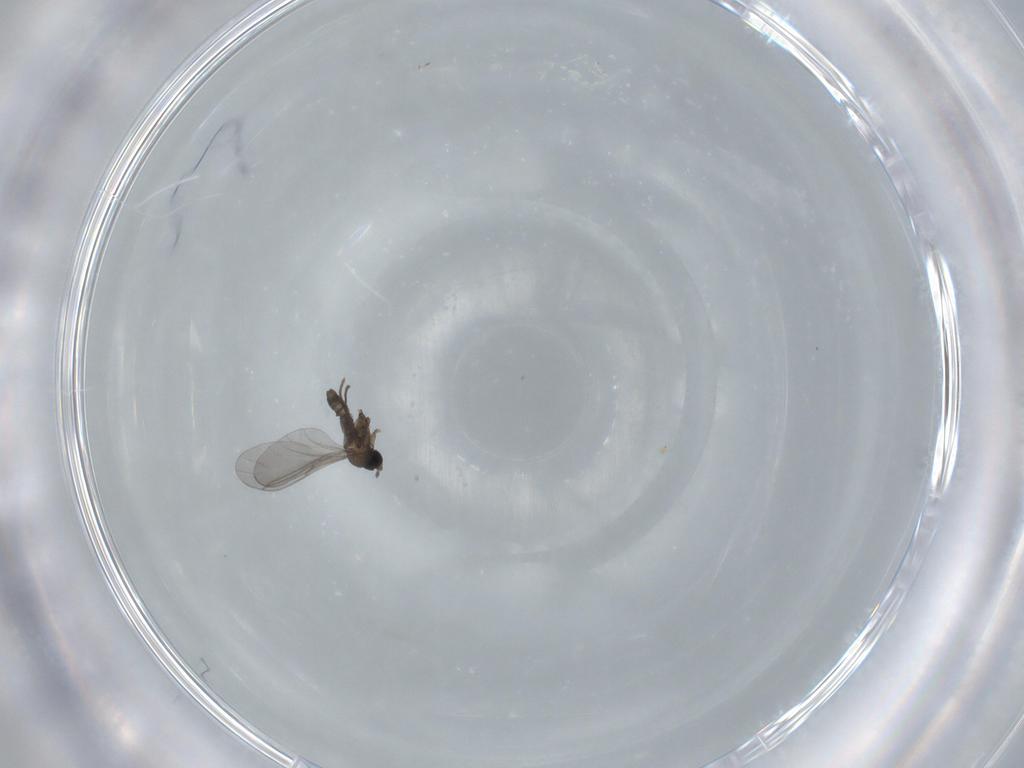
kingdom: Animalia
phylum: Arthropoda
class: Insecta
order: Diptera
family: Sciaridae
